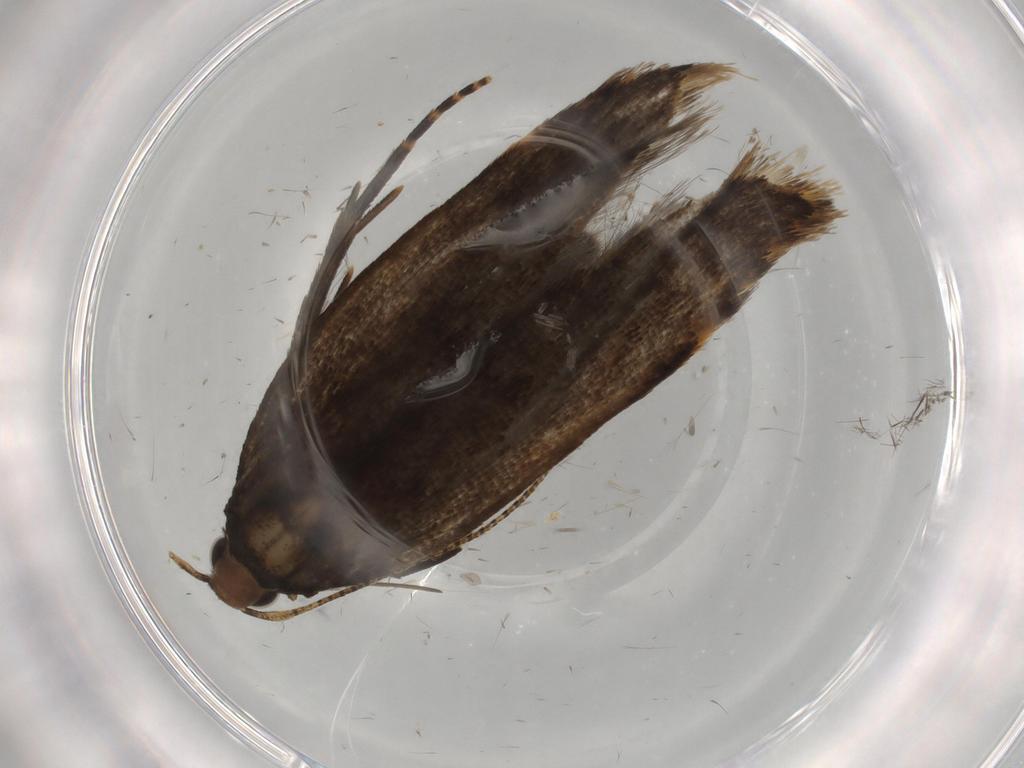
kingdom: Animalia
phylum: Arthropoda
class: Insecta
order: Lepidoptera
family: Gelechiidae
